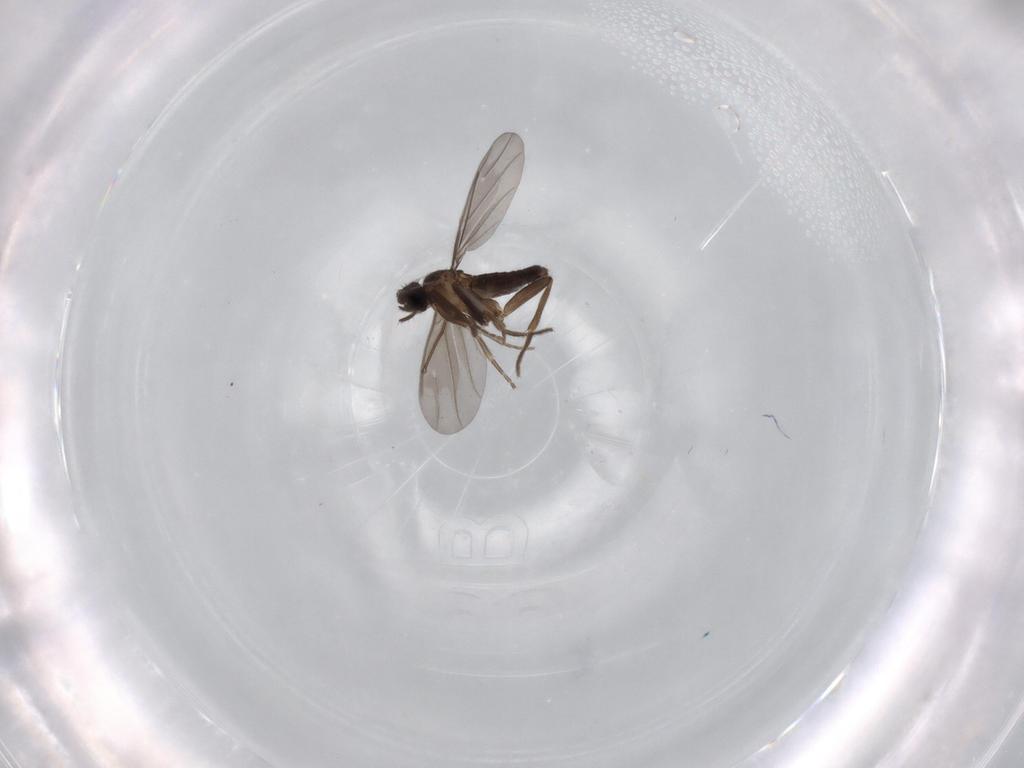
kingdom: Animalia
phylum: Arthropoda
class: Insecta
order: Diptera
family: Phoridae
